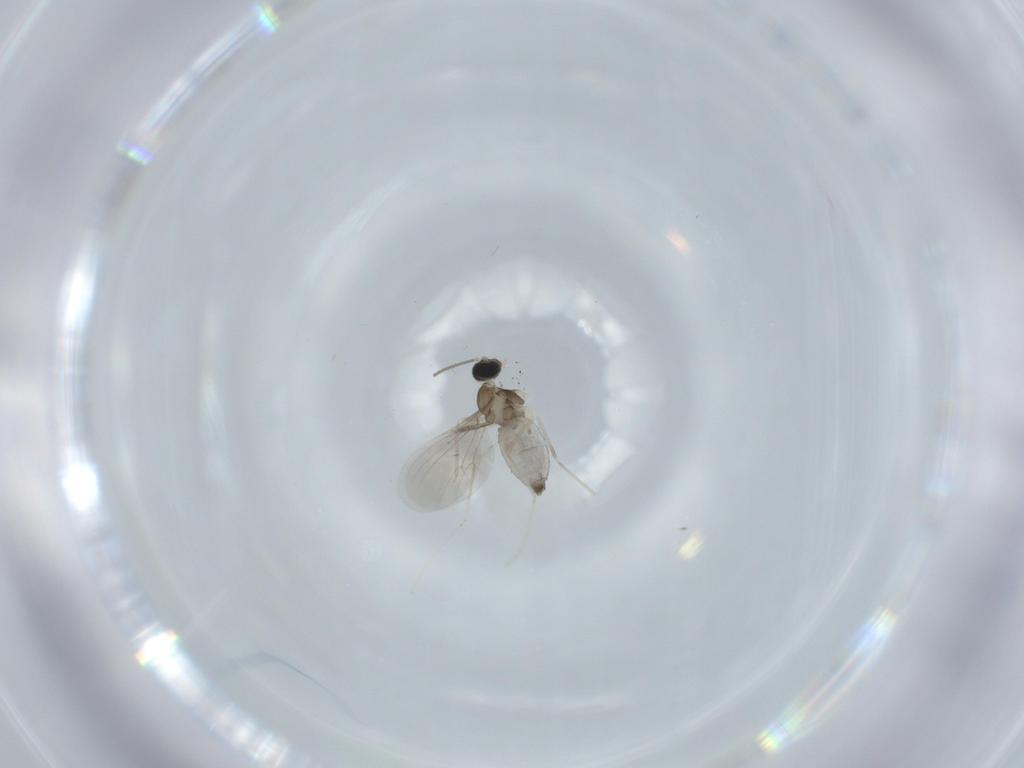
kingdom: Animalia
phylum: Arthropoda
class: Insecta
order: Diptera
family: Cecidomyiidae
